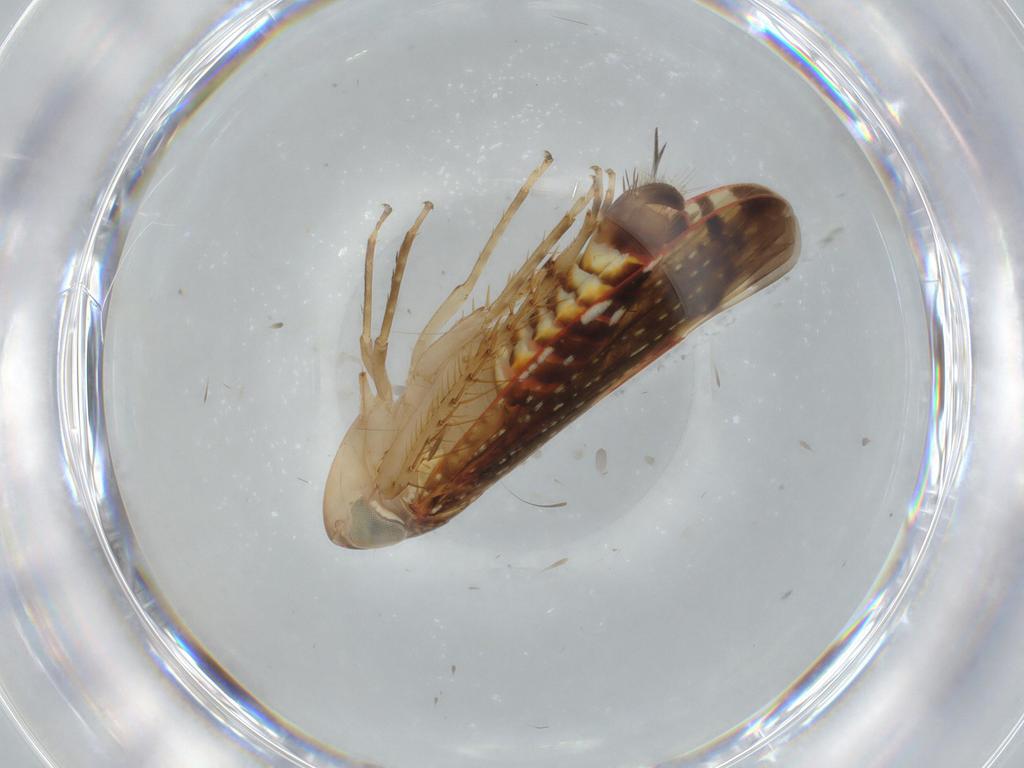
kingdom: Animalia
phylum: Arthropoda
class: Insecta
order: Hemiptera
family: Cicadellidae
